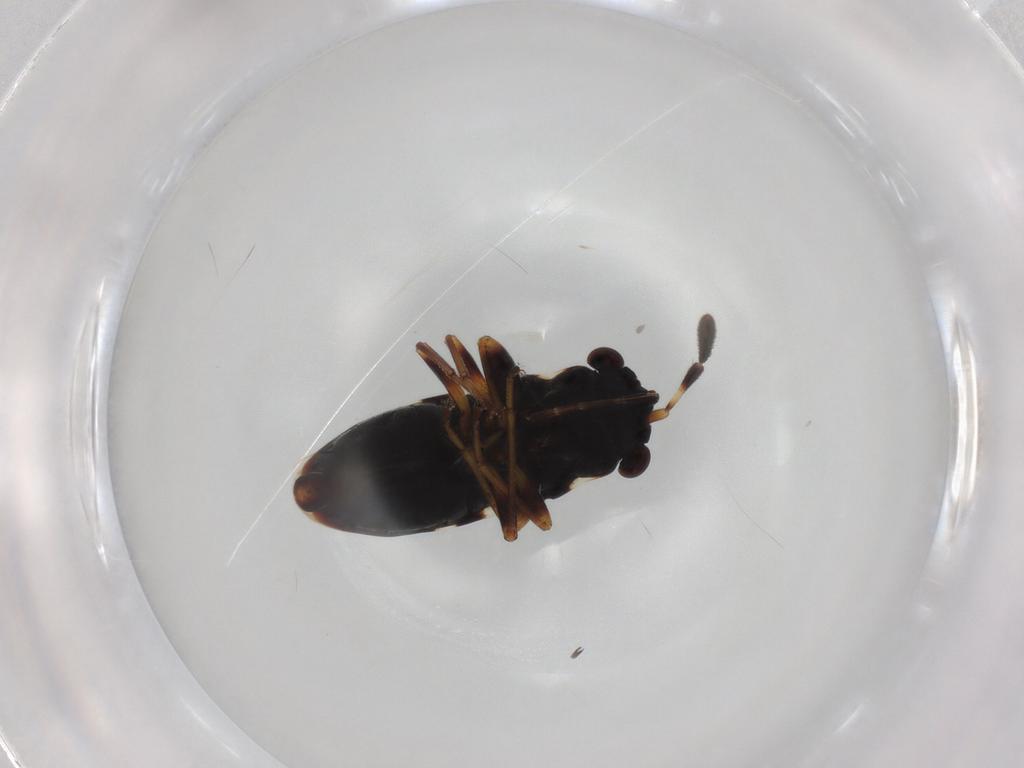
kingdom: Animalia
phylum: Arthropoda
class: Insecta
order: Hemiptera
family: Rhyparochromidae
